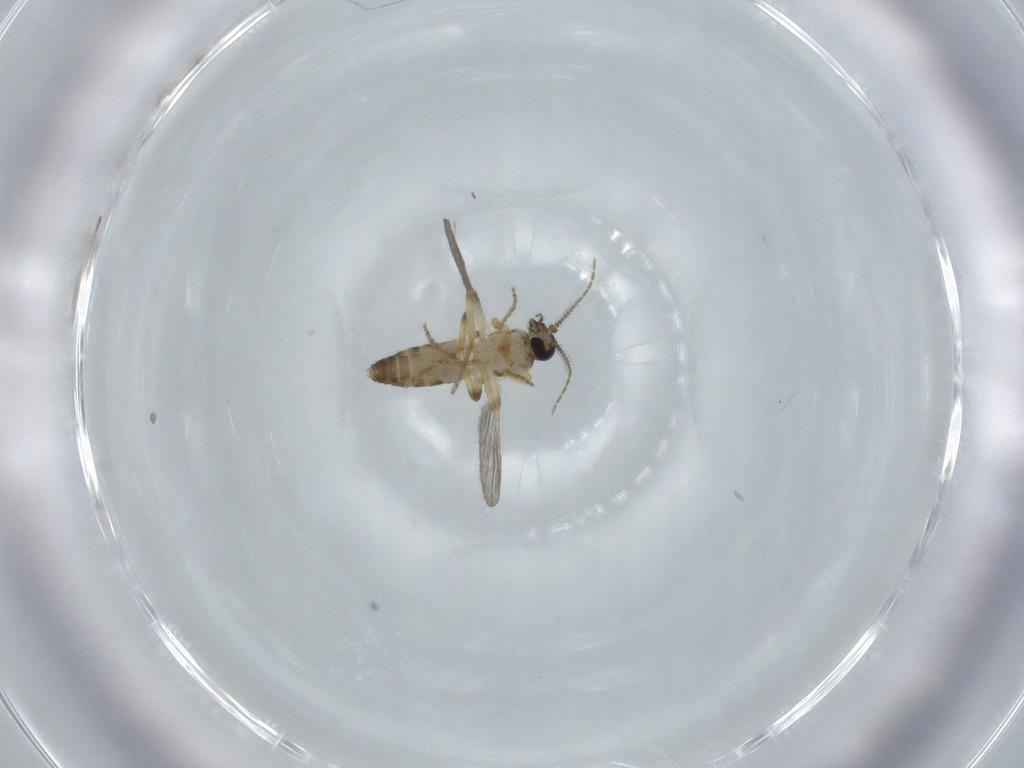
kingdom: Animalia
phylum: Arthropoda
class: Insecta
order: Diptera
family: Ceratopogonidae
